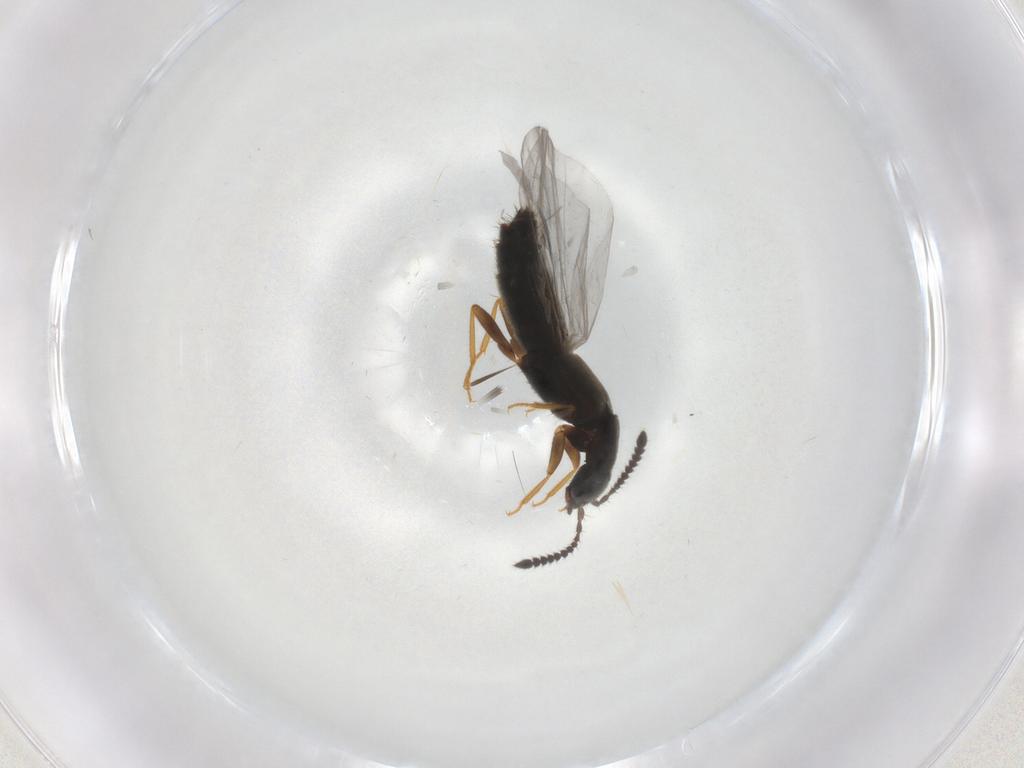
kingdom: Animalia
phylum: Arthropoda
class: Insecta
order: Coleoptera
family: Staphylinidae
